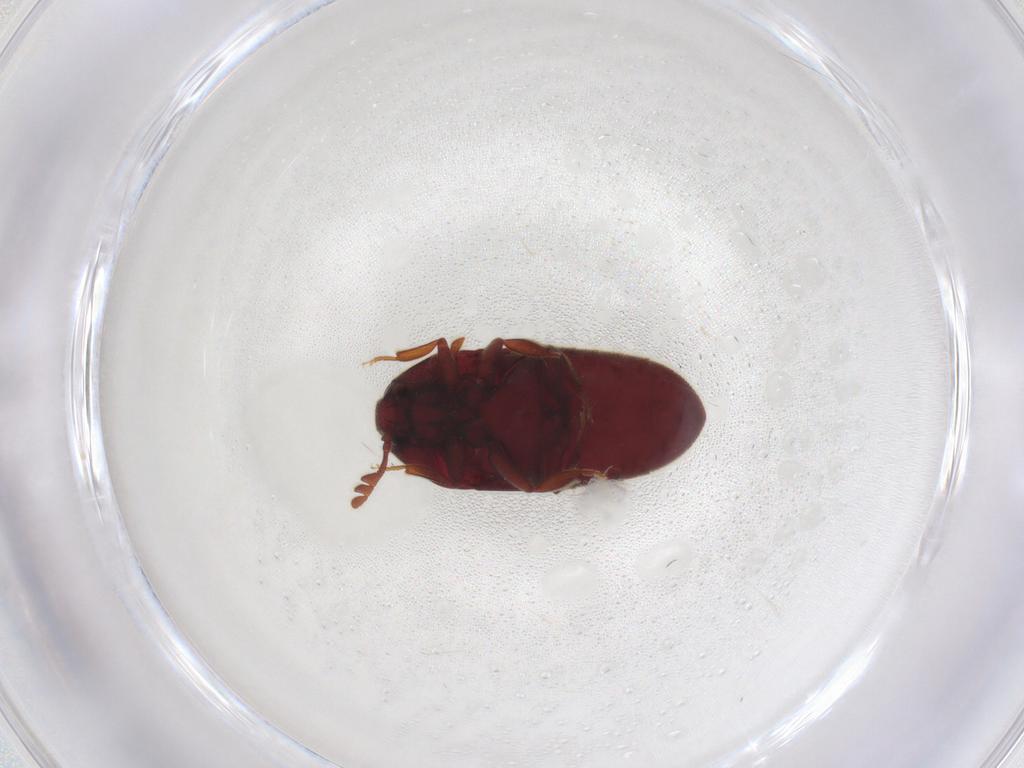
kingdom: Animalia
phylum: Arthropoda
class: Insecta
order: Coleoptera
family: Throscidae
